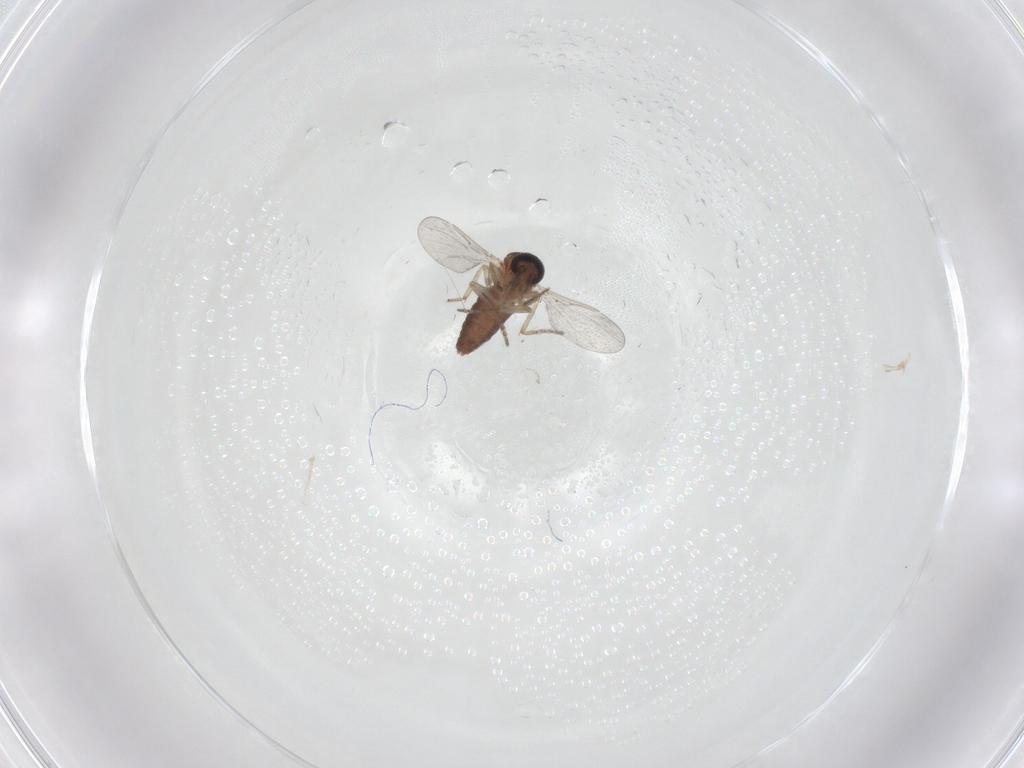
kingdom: Animalia
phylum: Arthropoda
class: Insecta
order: Diptera
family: Ceratopogonidae
